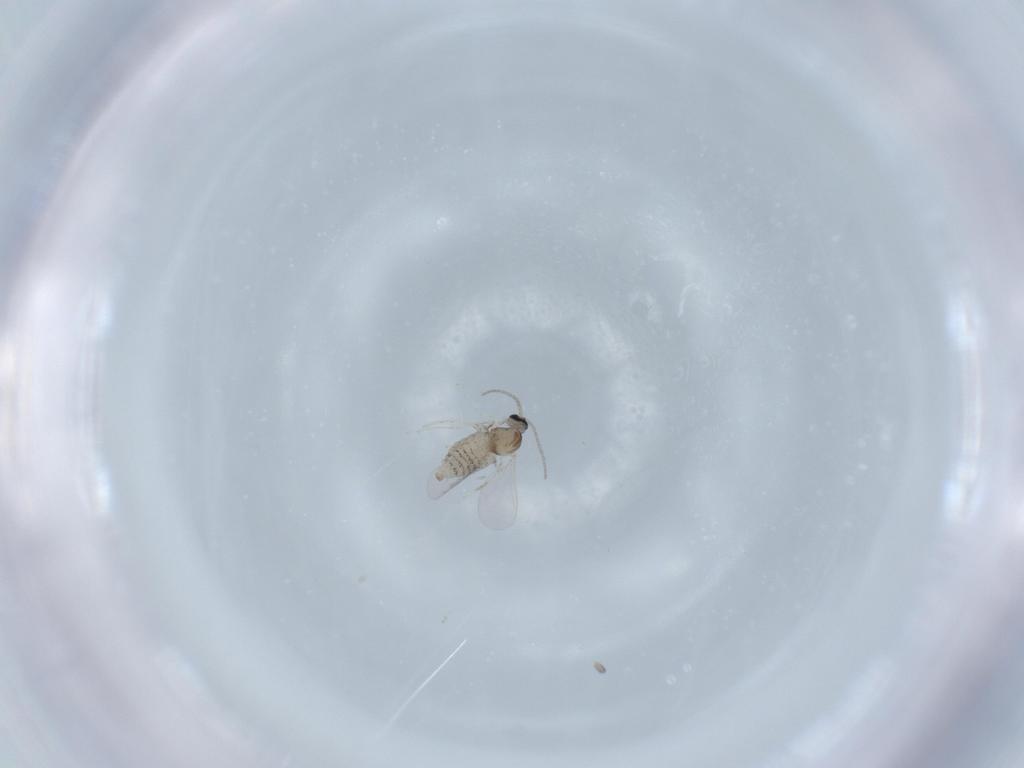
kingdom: Animalia
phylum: Arthropoda
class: Insecta
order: Diptera
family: Cecidomyiidae
